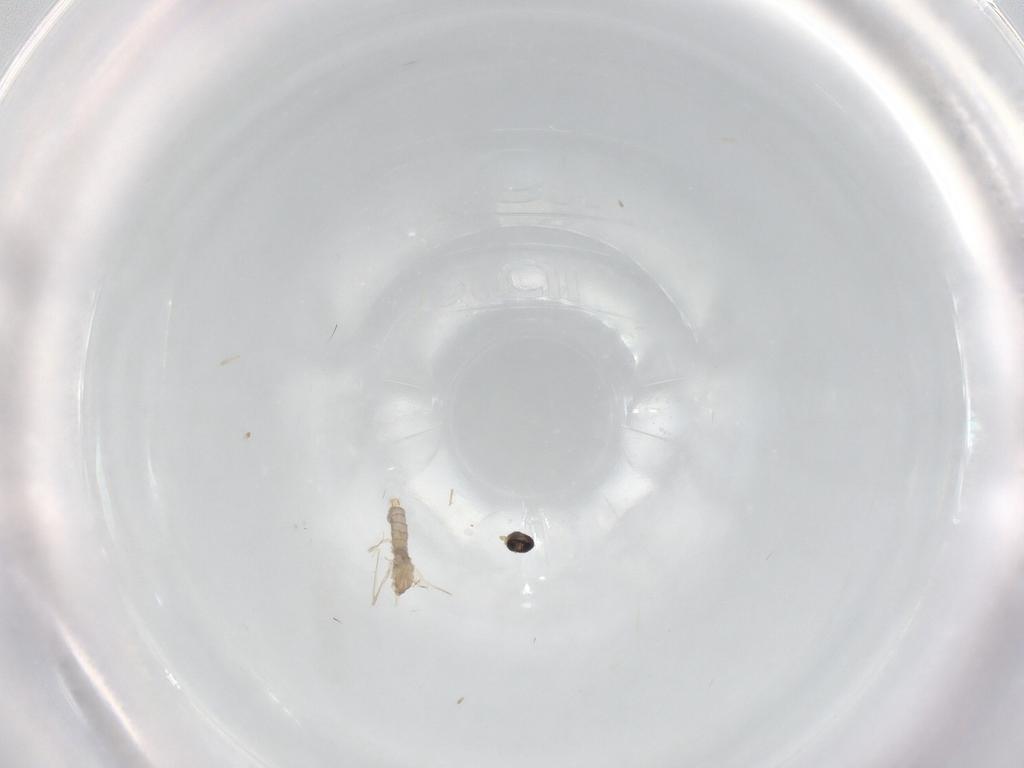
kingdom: Animalia
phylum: Arthropoda
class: Insecta
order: Diptera
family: Cecidomyiidae
